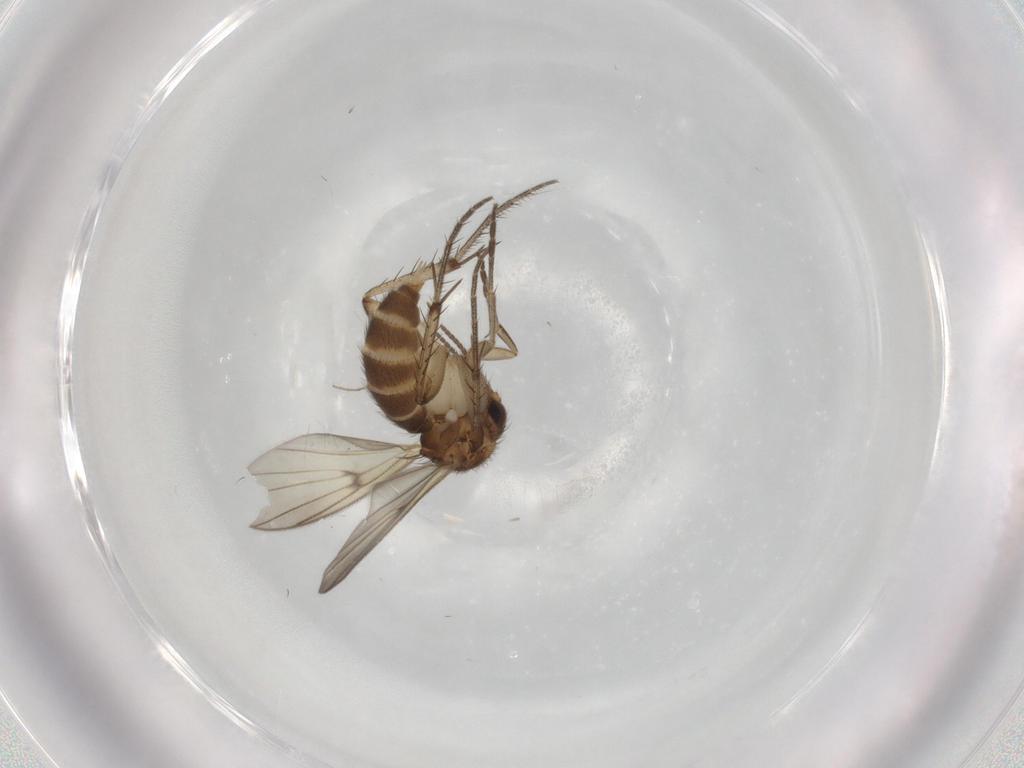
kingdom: Animalia
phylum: Arthropoda
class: Insecta
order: Diptera
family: Mycetophilidae
